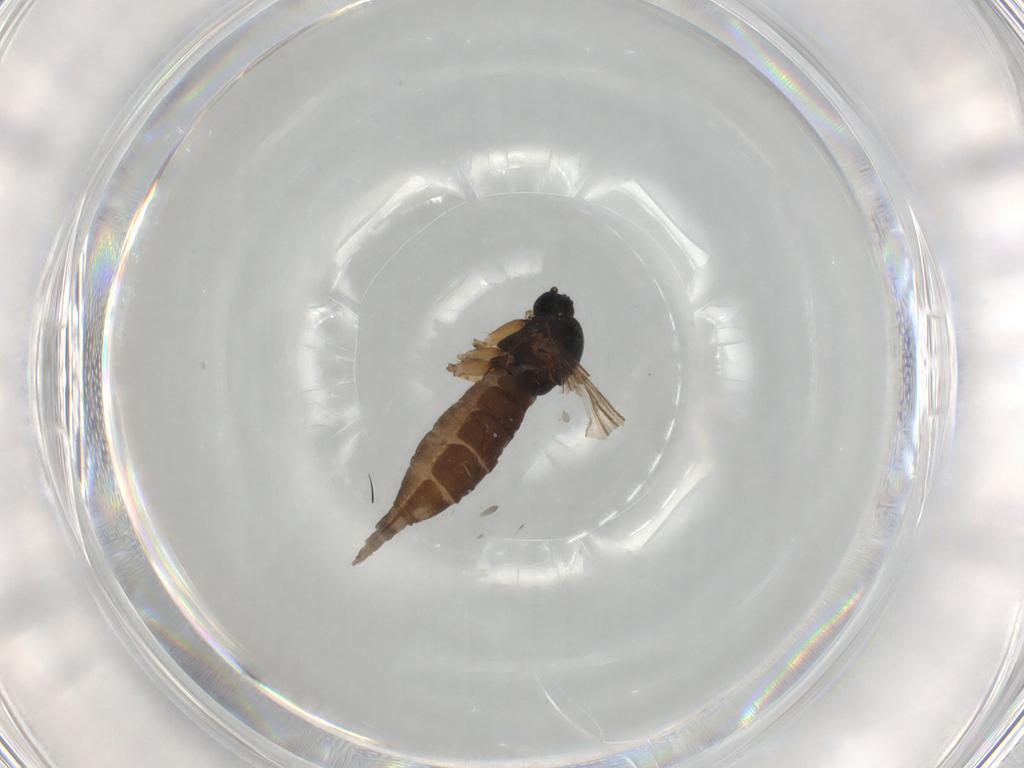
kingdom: Animalia
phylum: Arthropoda
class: Insecta
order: Diptera
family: Sciaridae
